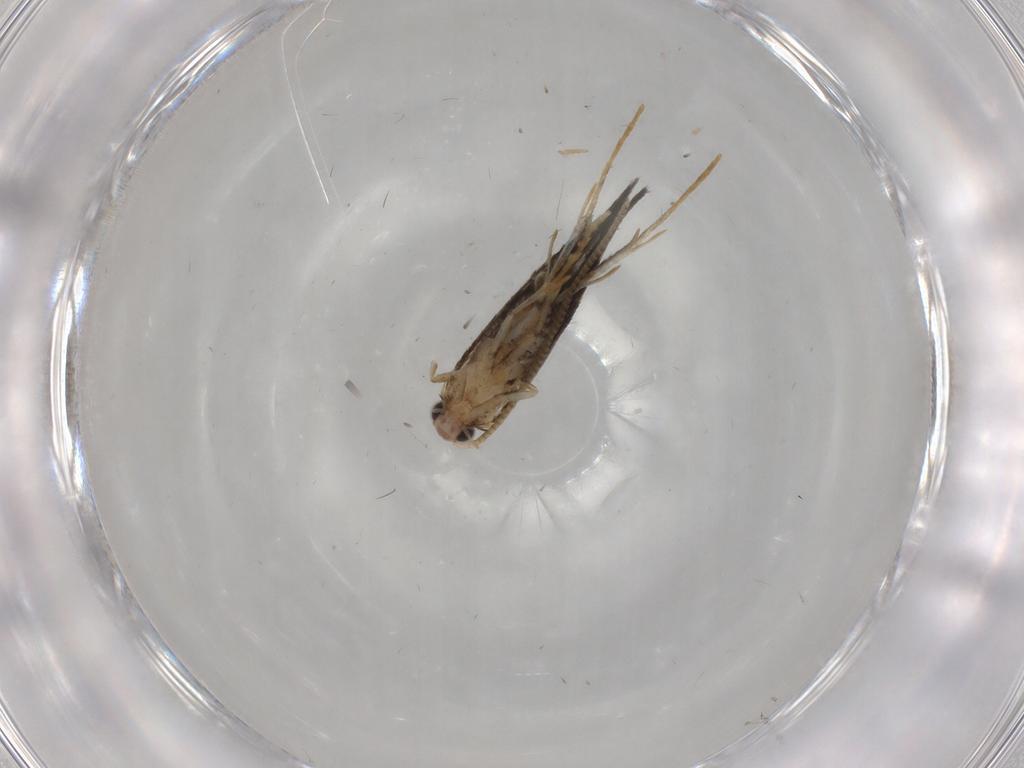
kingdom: Animalia
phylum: Arthropoda
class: Insecta
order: Lepidoptera
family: Tineidae
